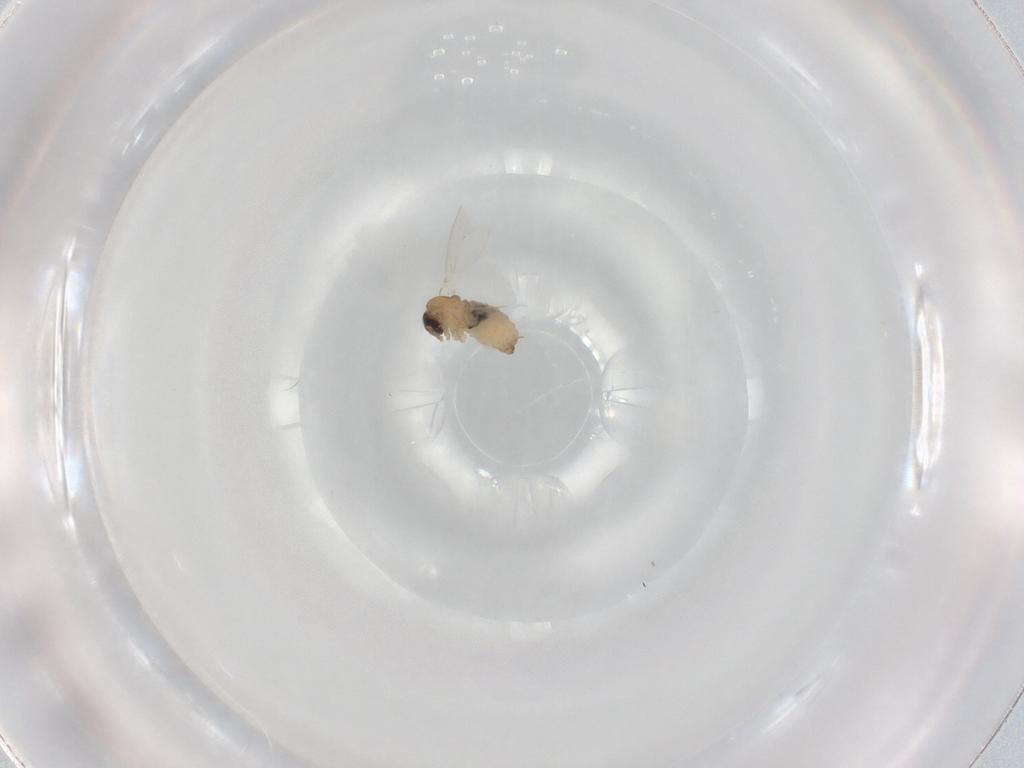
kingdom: Animalia
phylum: Arthropoda
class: Insecta
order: Diptera
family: Psychodidae
